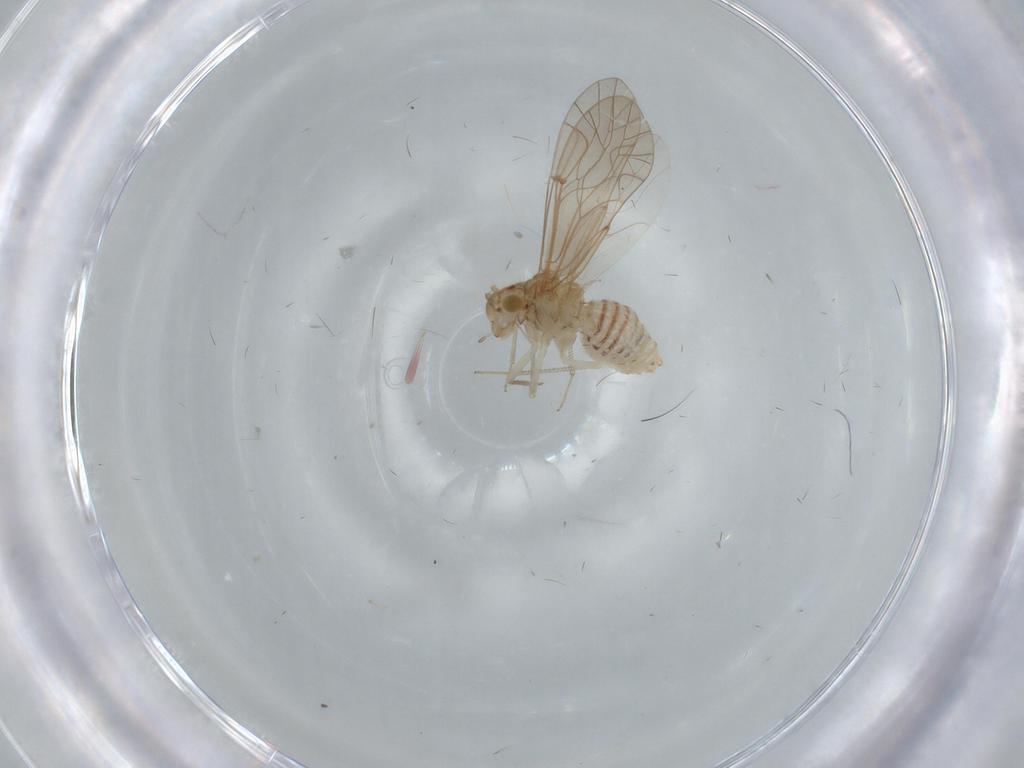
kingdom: Animalia
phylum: Arthropoda
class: Insecta
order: Psocodea
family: Lachesillidae
